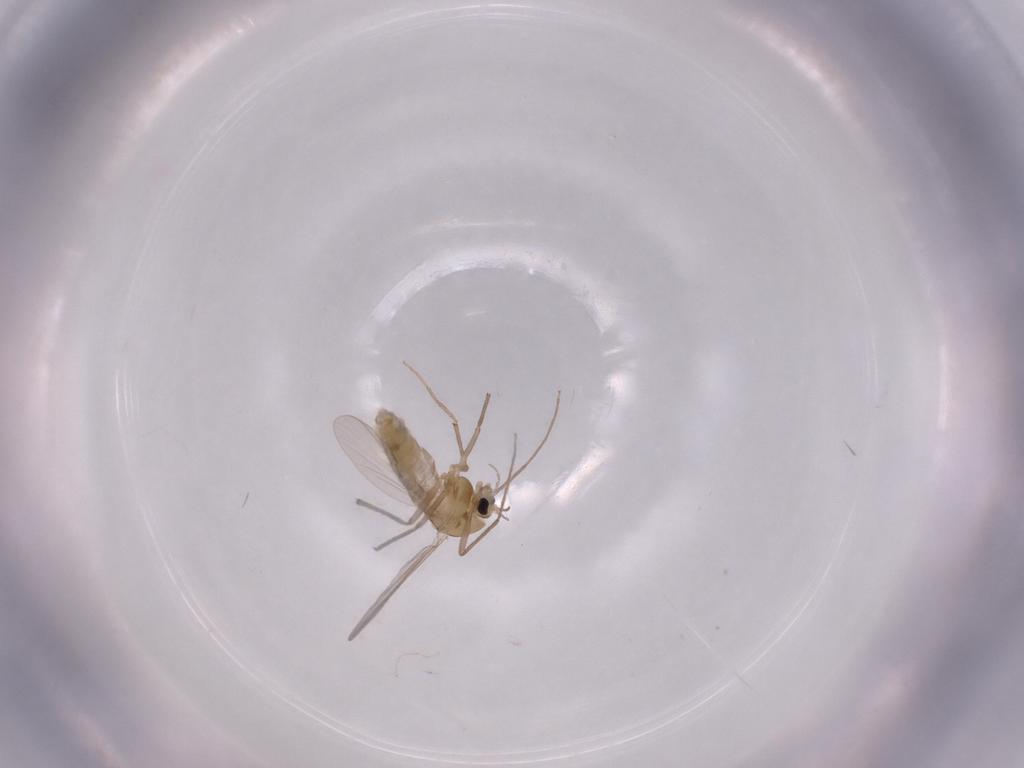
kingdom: Animalia
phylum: Arthropoda
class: Insecta
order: Diptera
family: Chironomidae
